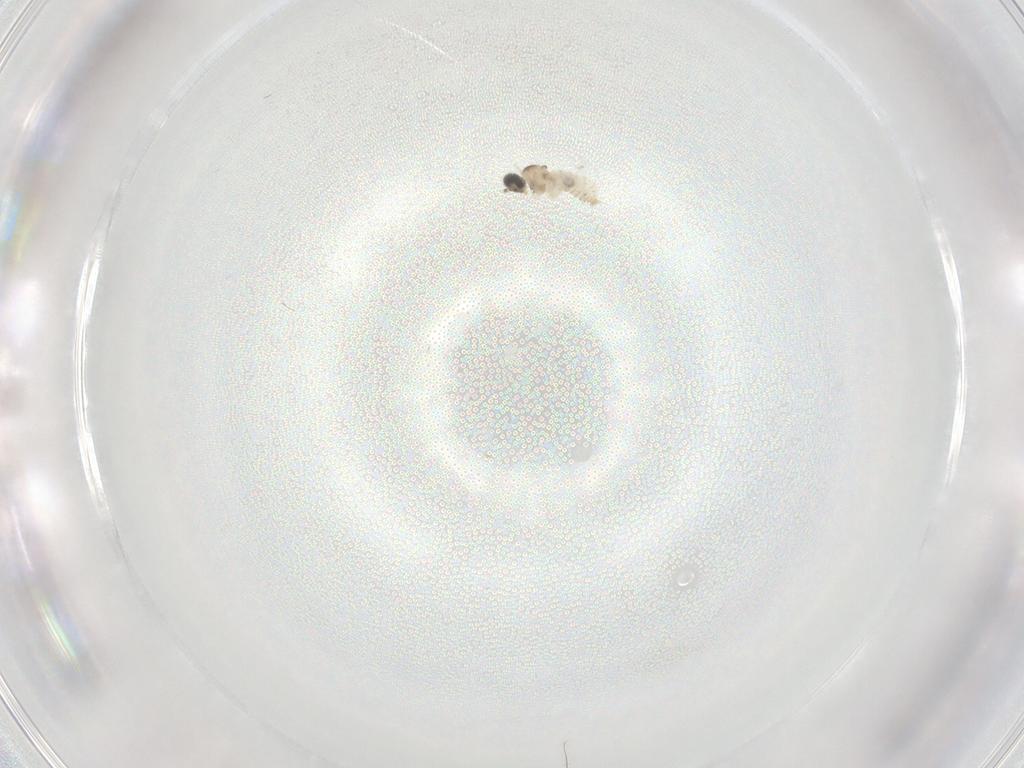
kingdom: Animalia
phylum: Arthropoda
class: Insecta
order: Diptera
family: Cecidomyiidae
